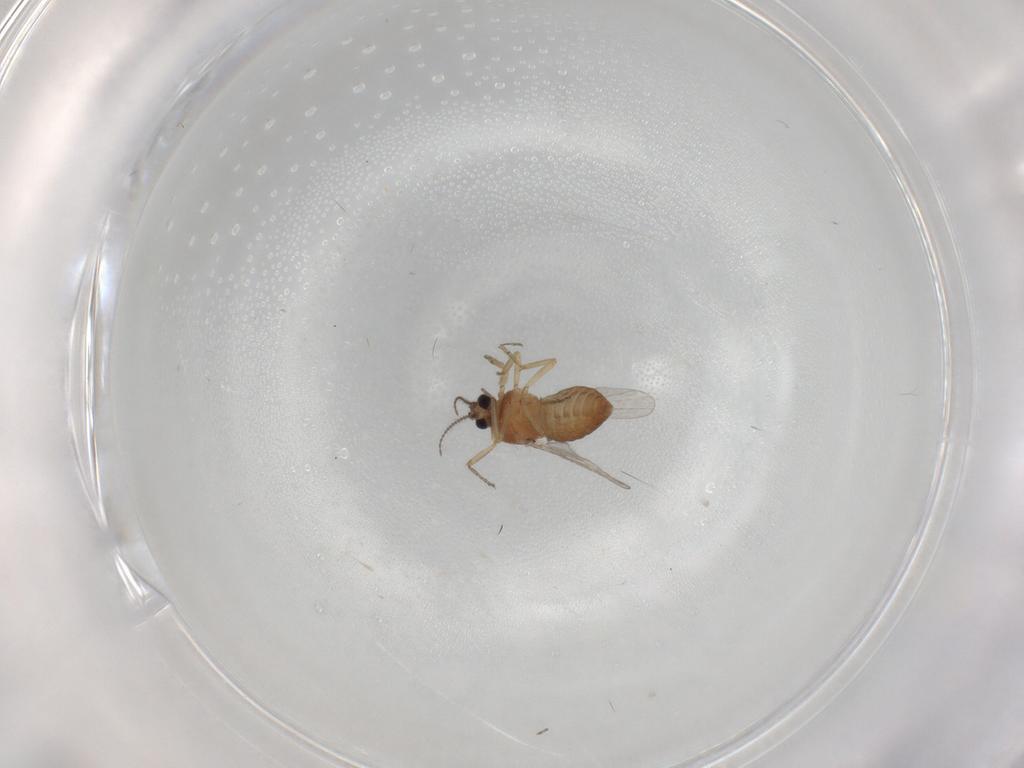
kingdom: Animalia
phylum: Arthropoda
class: Insecta
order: Diptera
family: Ceratopogonidae
